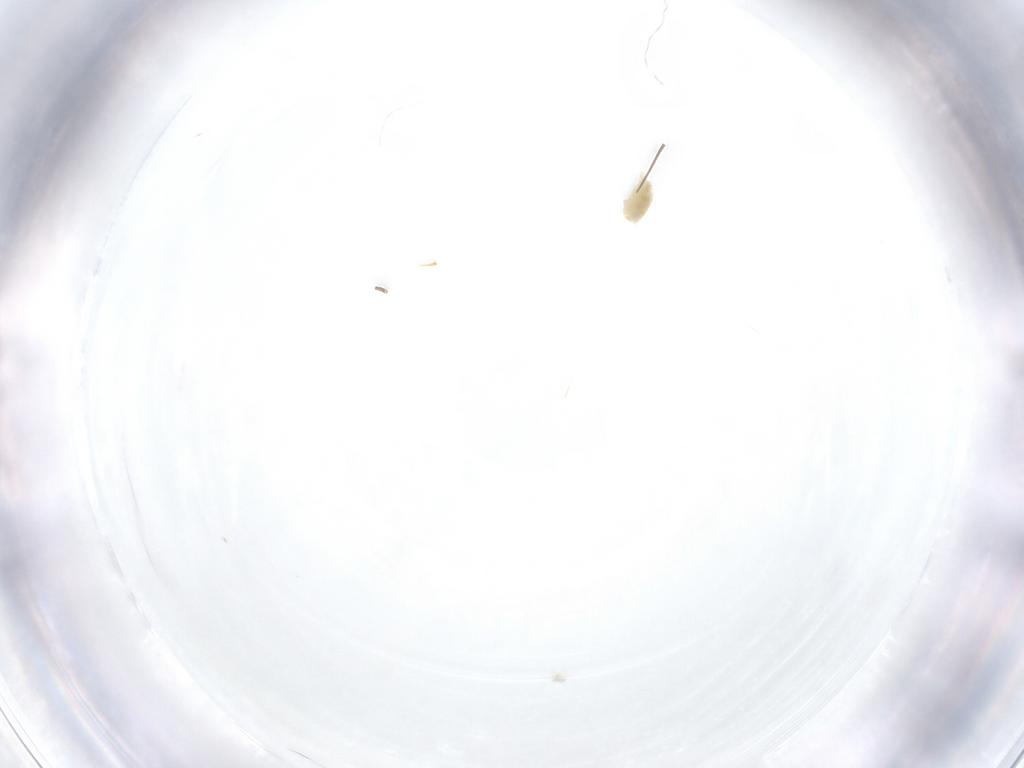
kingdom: Animalia
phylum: Arthropoda
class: Arachnida
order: Trombidiformes
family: Eupodidae
